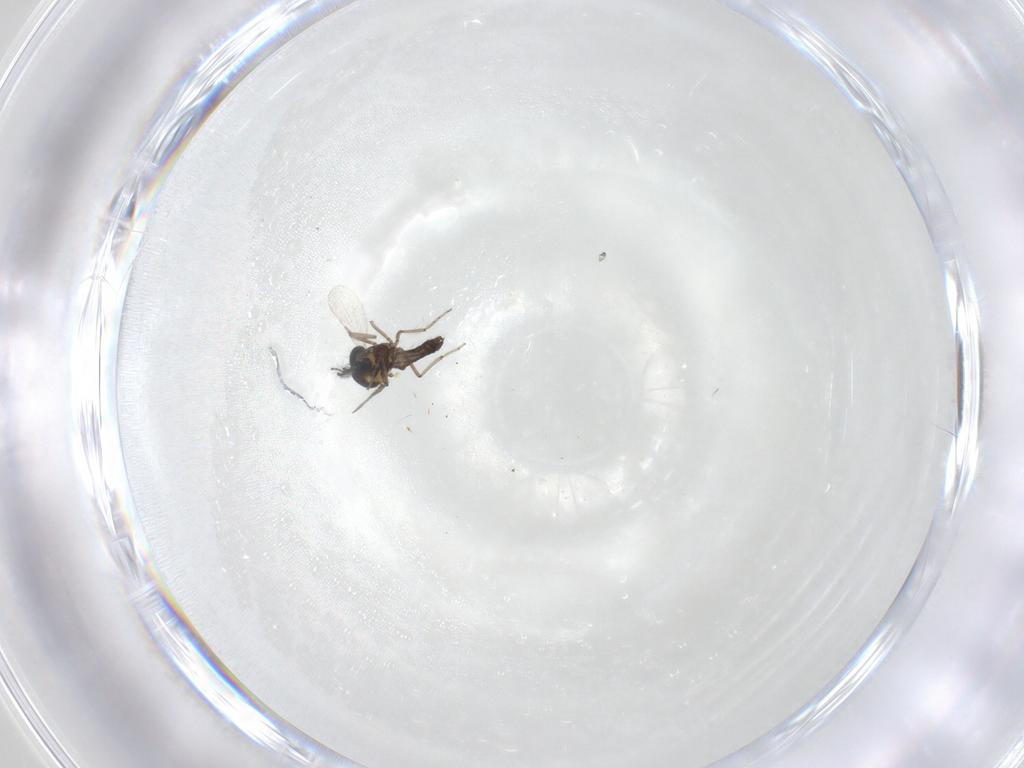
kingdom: Animalia
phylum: Arthropoda
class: Insecta
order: Diptera
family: Ceratopogonidae
